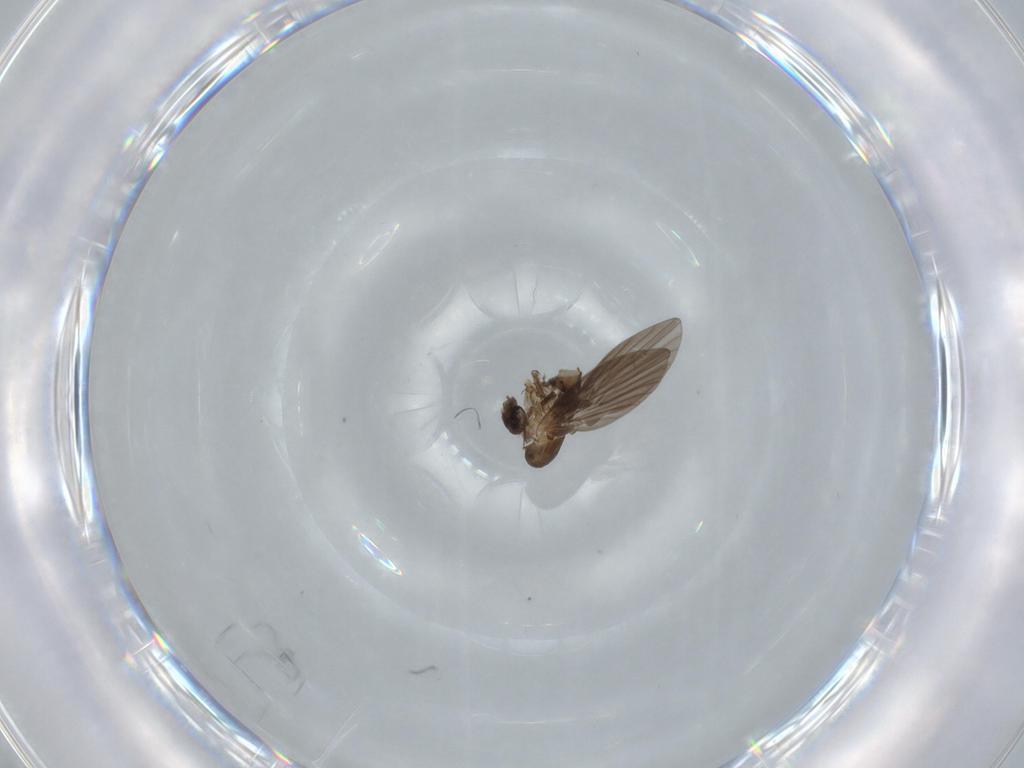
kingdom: Animalia
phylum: Arthropoda
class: Insecta
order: Diptera
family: Psychodidae
